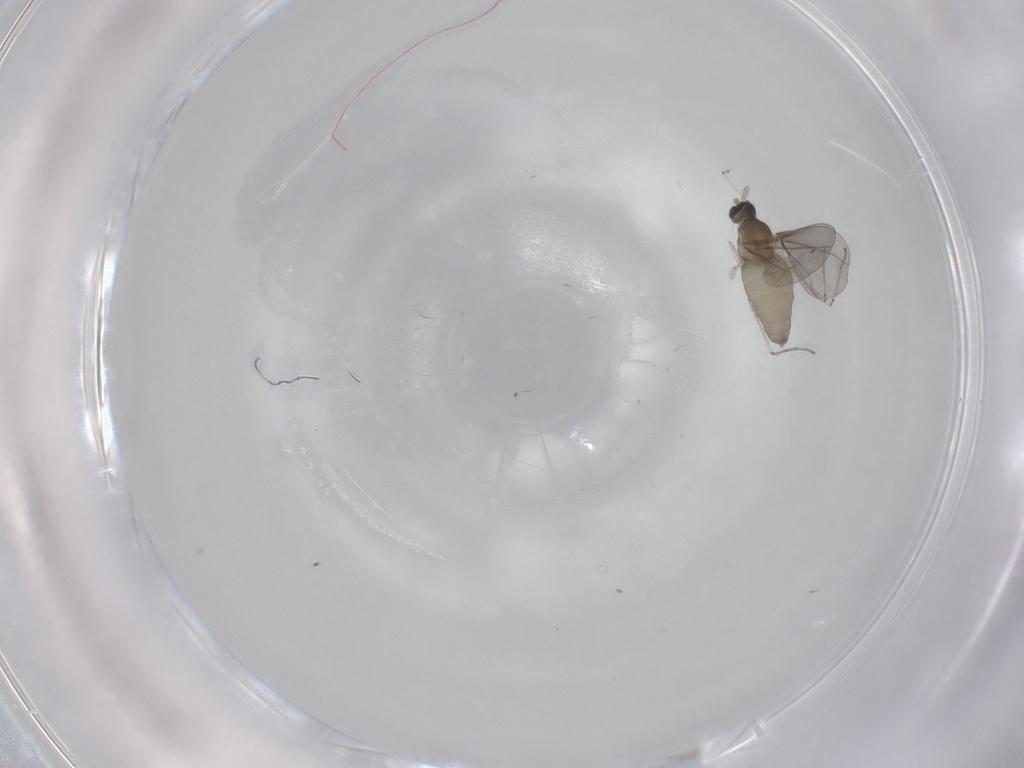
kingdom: Animalia
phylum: Arthropoda
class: Insecta
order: Diptera
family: Cecidomyiidae
